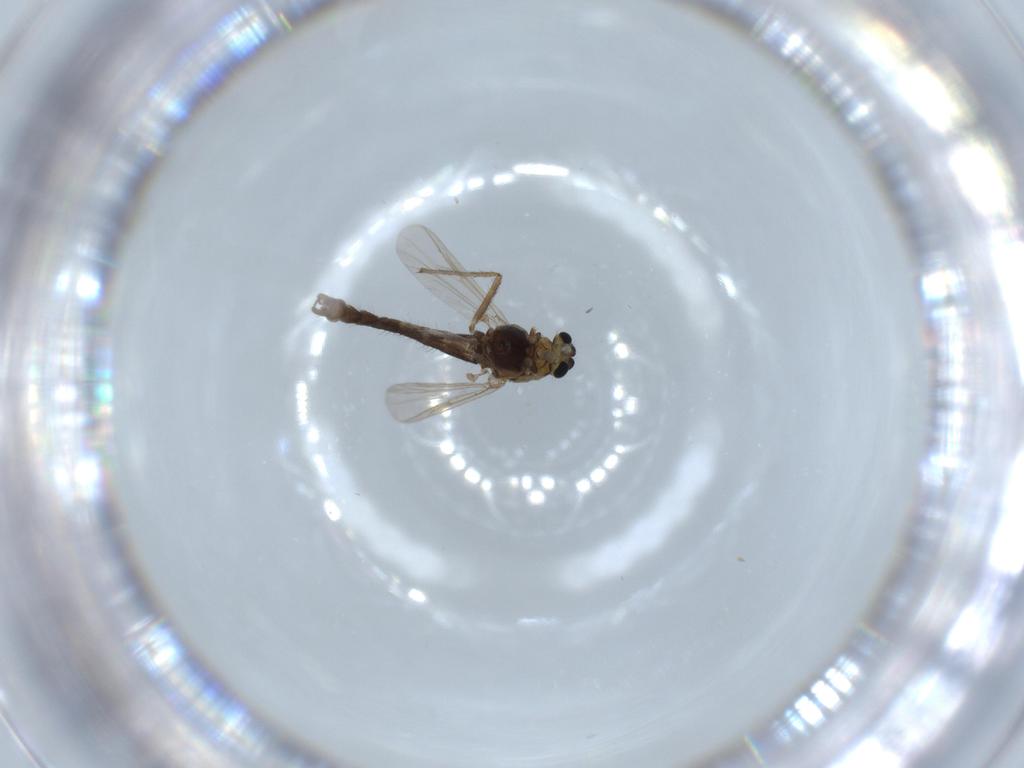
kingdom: Animalia
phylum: Arthropoda
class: Insecta
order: Diptera
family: Chironomidae
